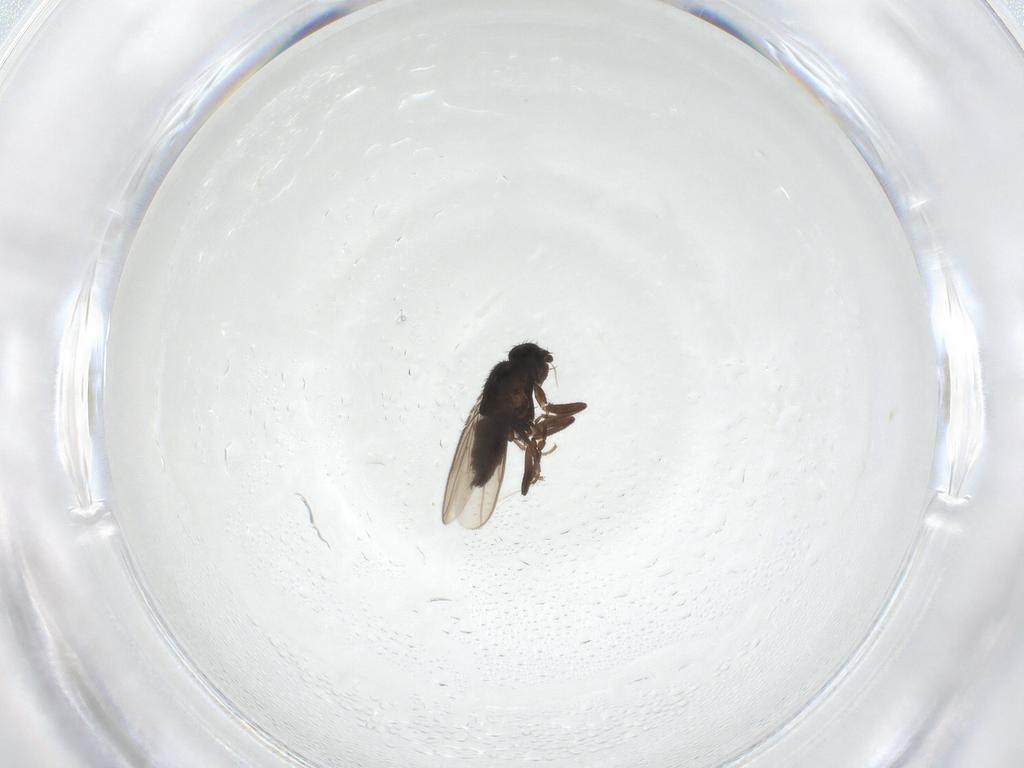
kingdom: Animalia
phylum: Arthropoda
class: Insecta
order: Diptera
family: Sphaeroceridae
